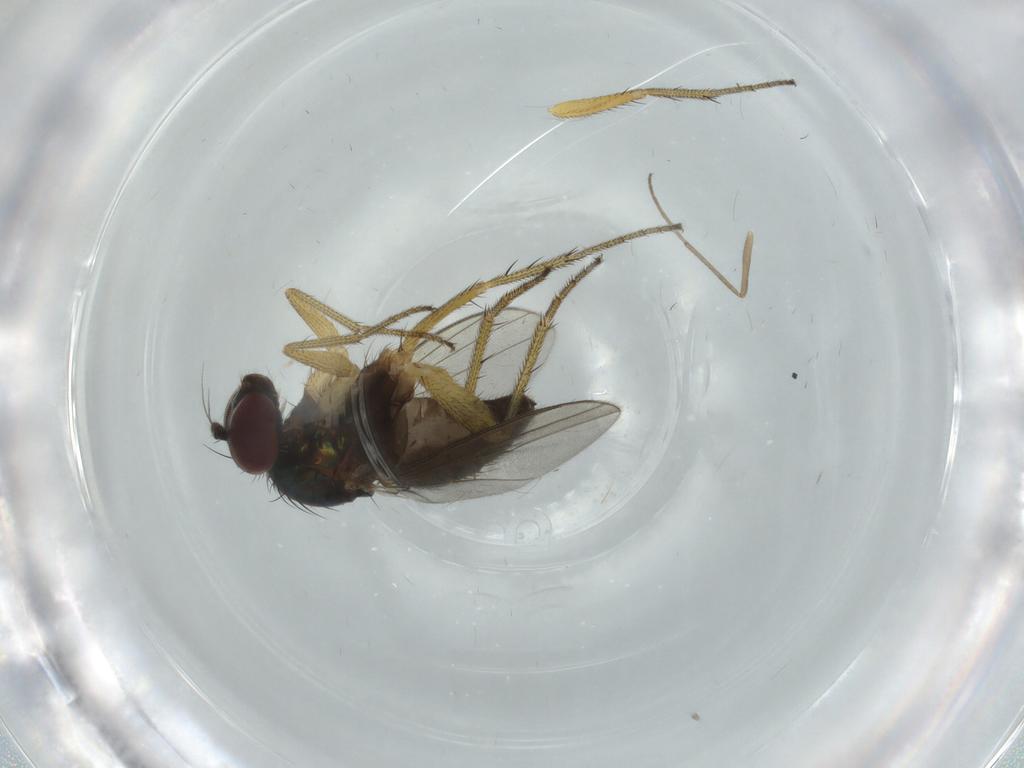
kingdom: Animalia
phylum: Arthropoda
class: Insecta
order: Diptera
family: Dolichopodidae
